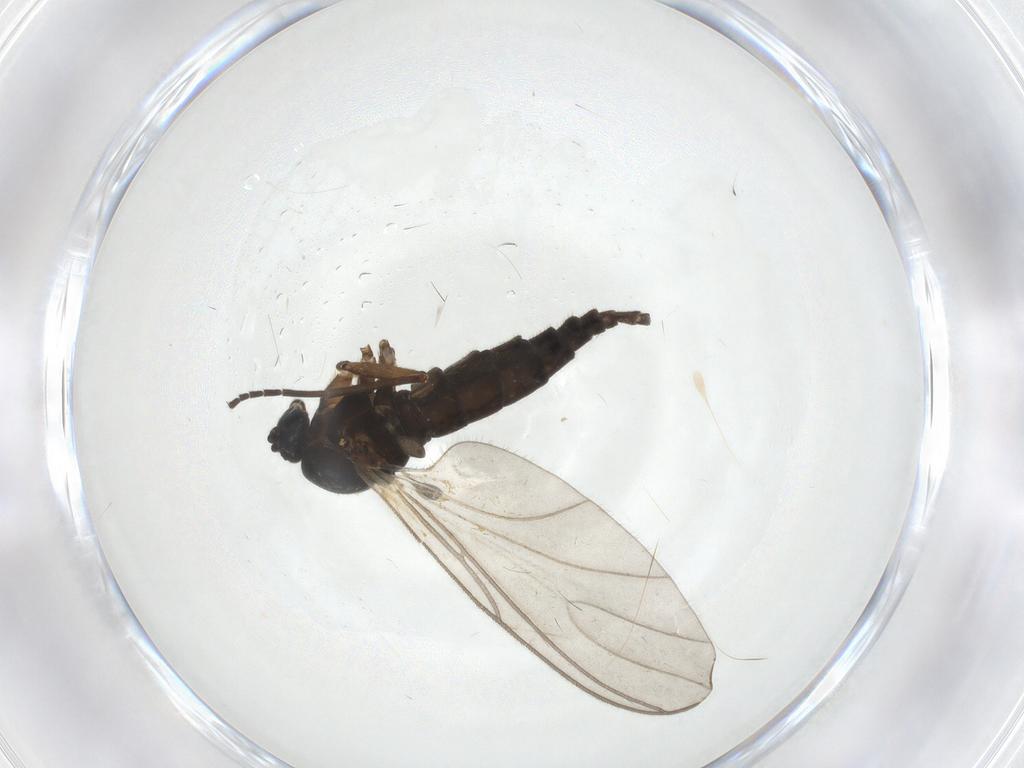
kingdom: Animalia
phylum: Arthropoda
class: Insecta
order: Diptera
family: Sciaridae
